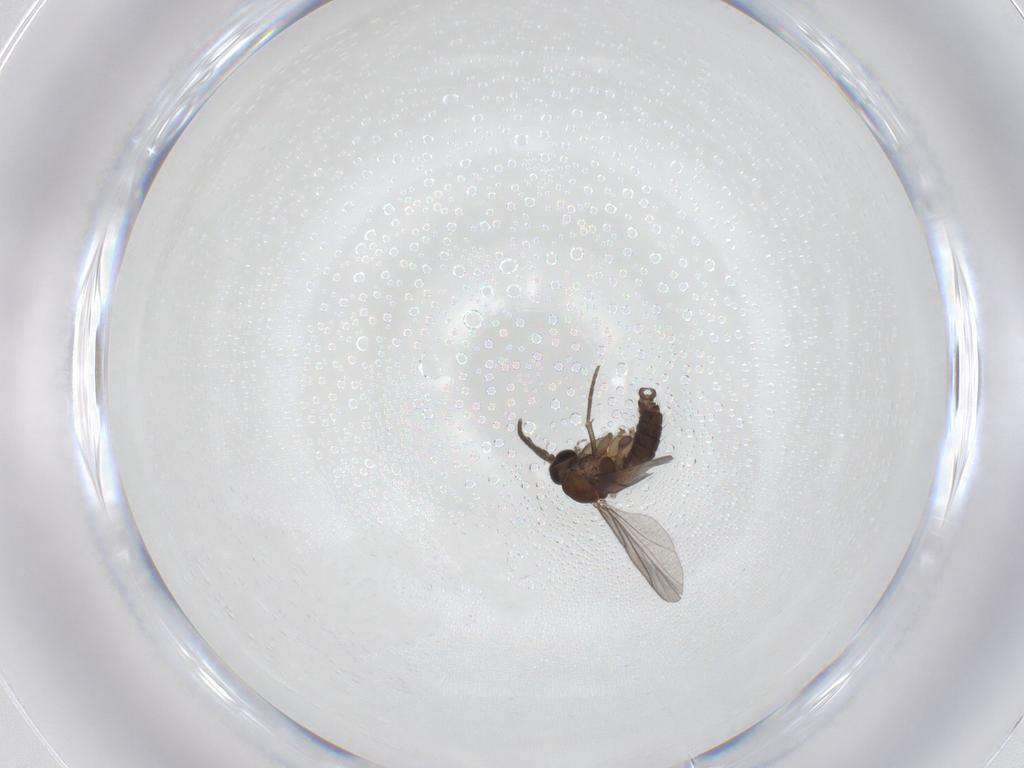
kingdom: Animalia
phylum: Arthropoda
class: Insecta
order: Diptera
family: Sciaridae
